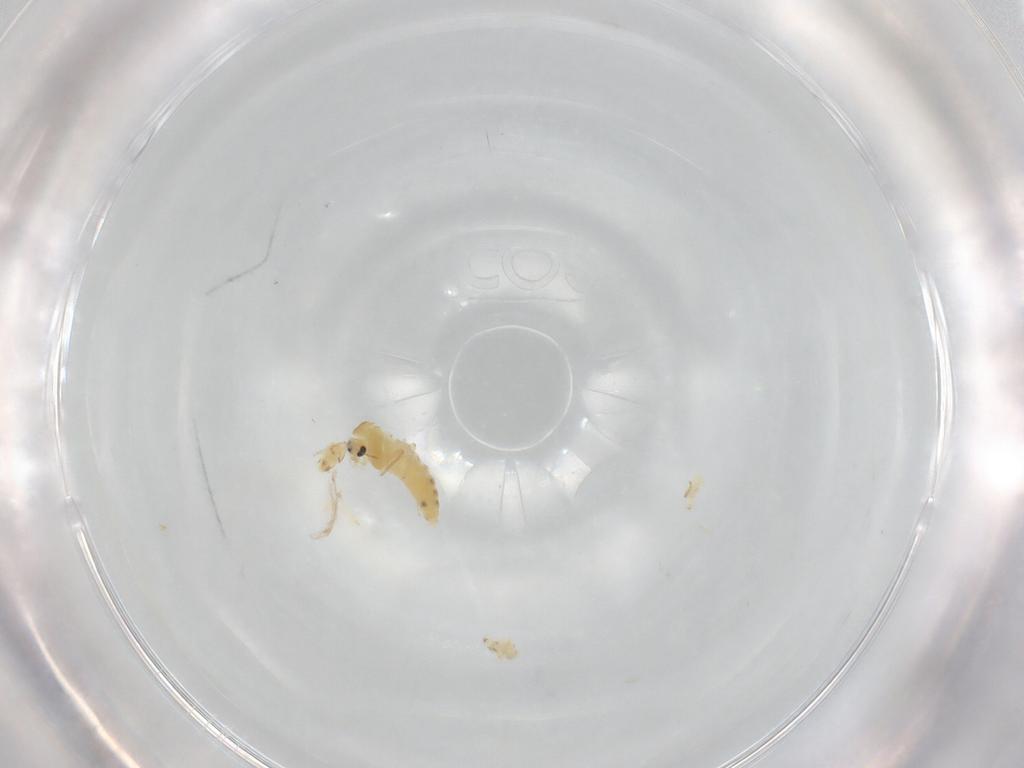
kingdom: Animalia
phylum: Arthropoda
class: Insecta
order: Diptera
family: Chironomidae
